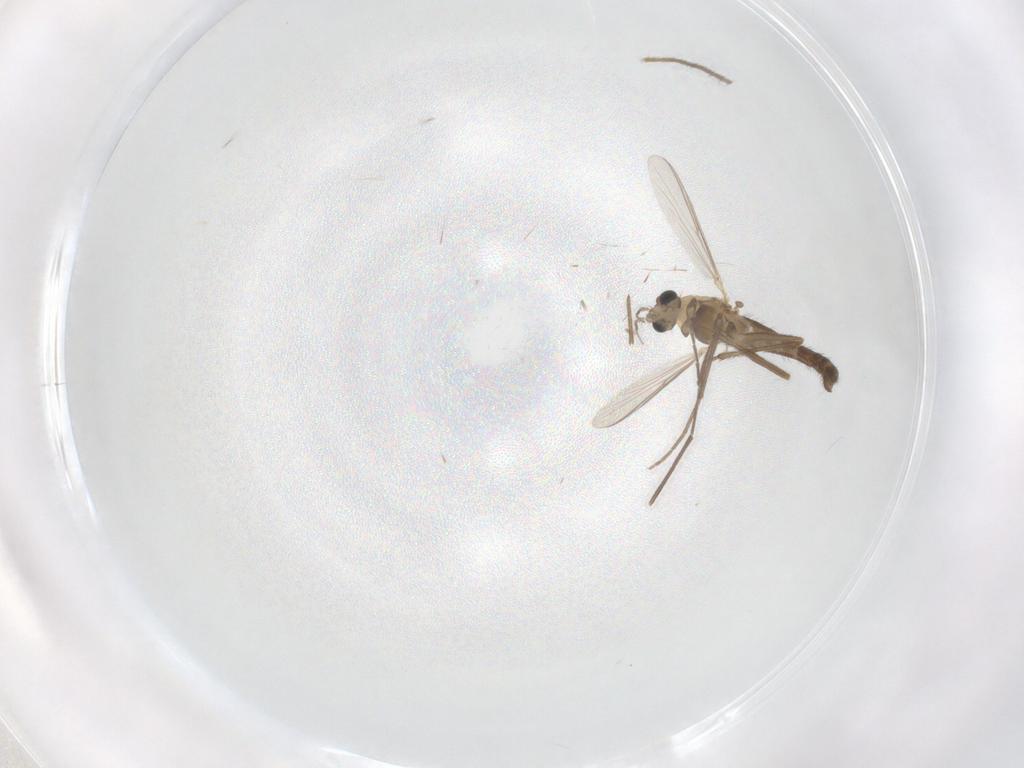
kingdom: Animalia
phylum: Arthropoda
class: Insecta
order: Diptera
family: Chironomidae
